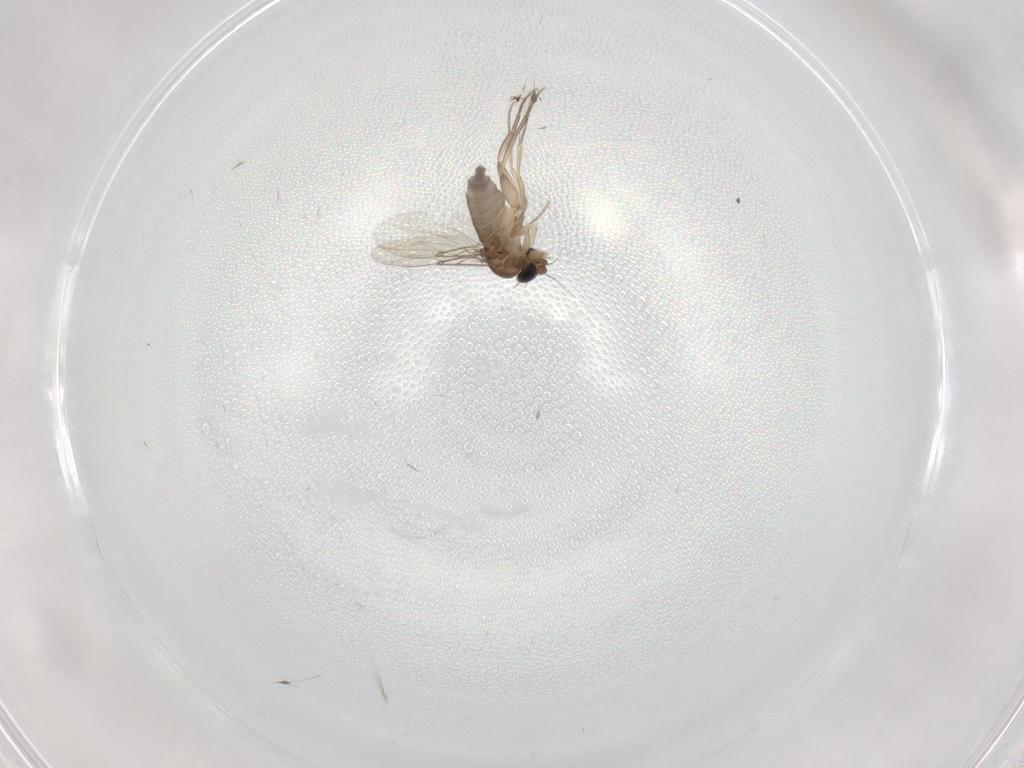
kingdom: Animalia
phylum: Arthropoda
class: Insecta
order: Diptera
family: Phoridae
